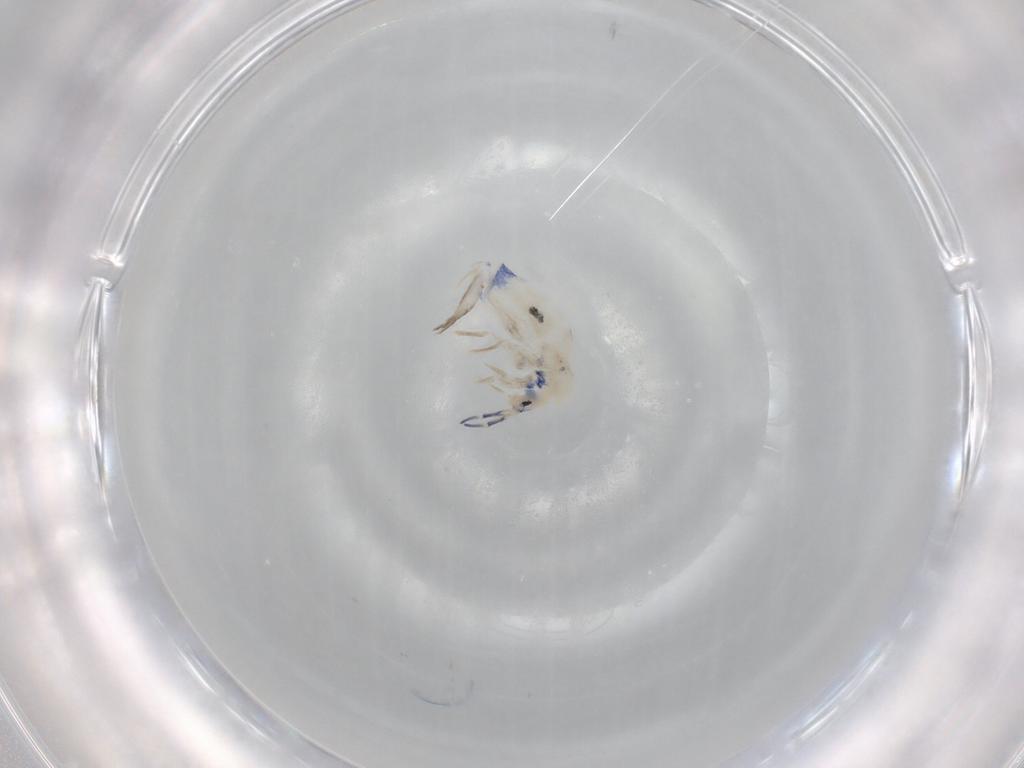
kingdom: Animalia
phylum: Arthropoda
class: Collembola
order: Entomobryomorpha
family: Entomobryidae
